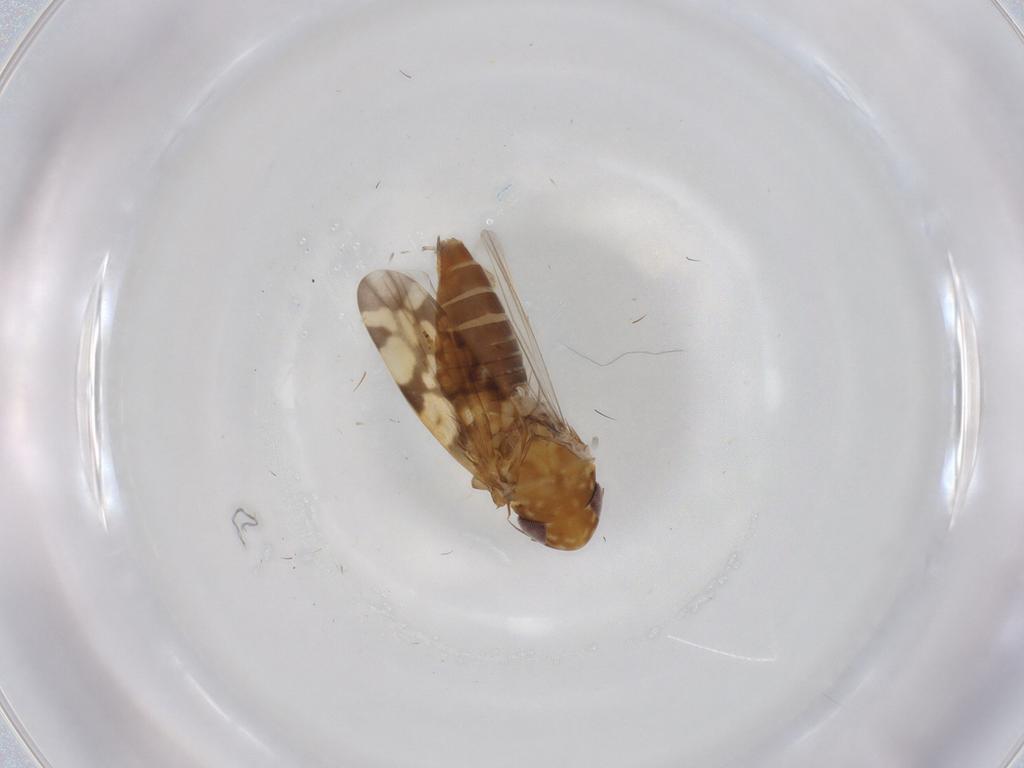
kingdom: Animalia
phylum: Arthropoda
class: Insecta
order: Hemiptera
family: Cicadellidae
